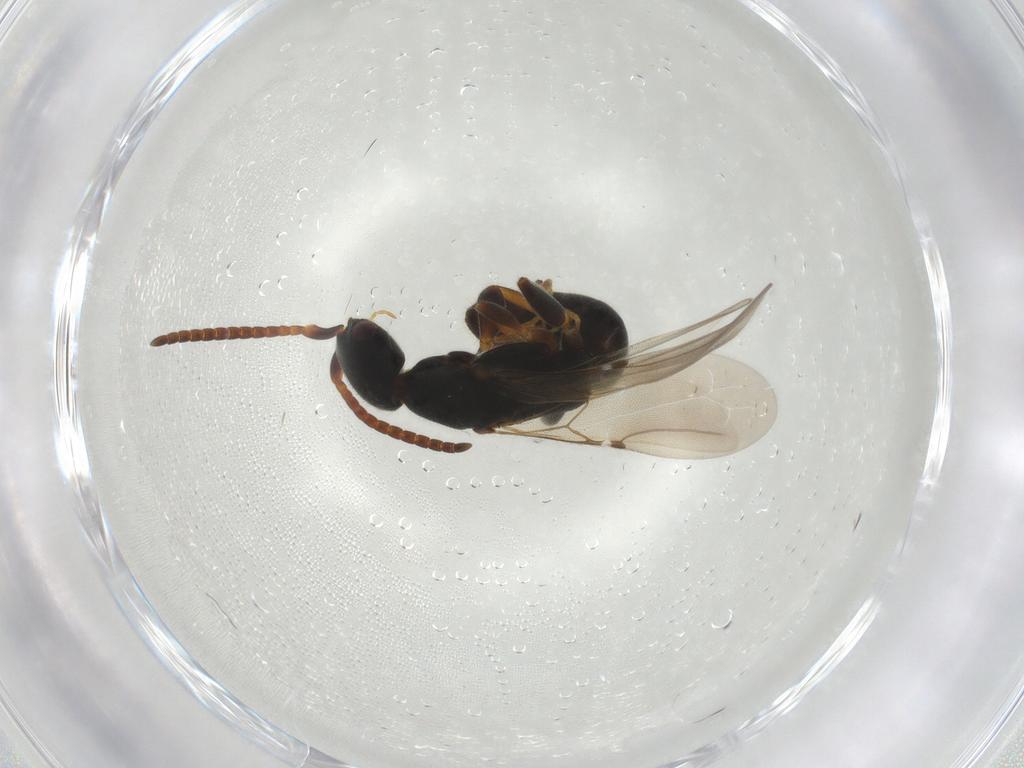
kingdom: Animalia
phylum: Arthropoda
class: Insecta
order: Hymenoptera
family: Bethylidae
